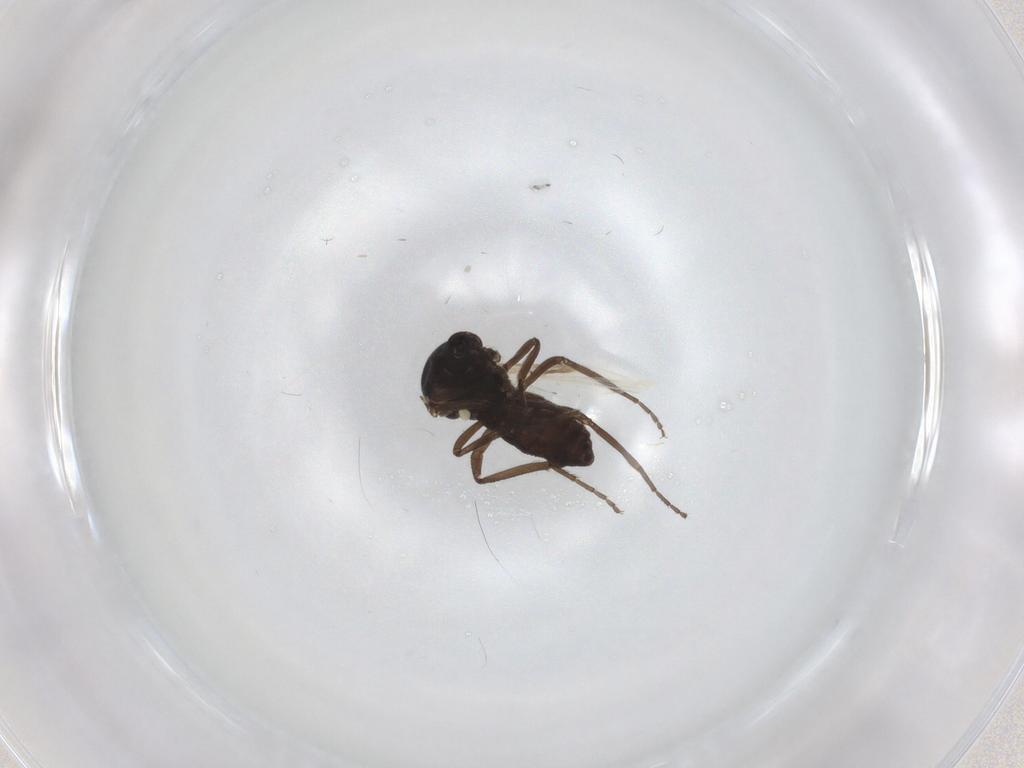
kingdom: Animalia
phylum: Arthropoda
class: Insecta
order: Diptera
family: Ceratopogonidae
